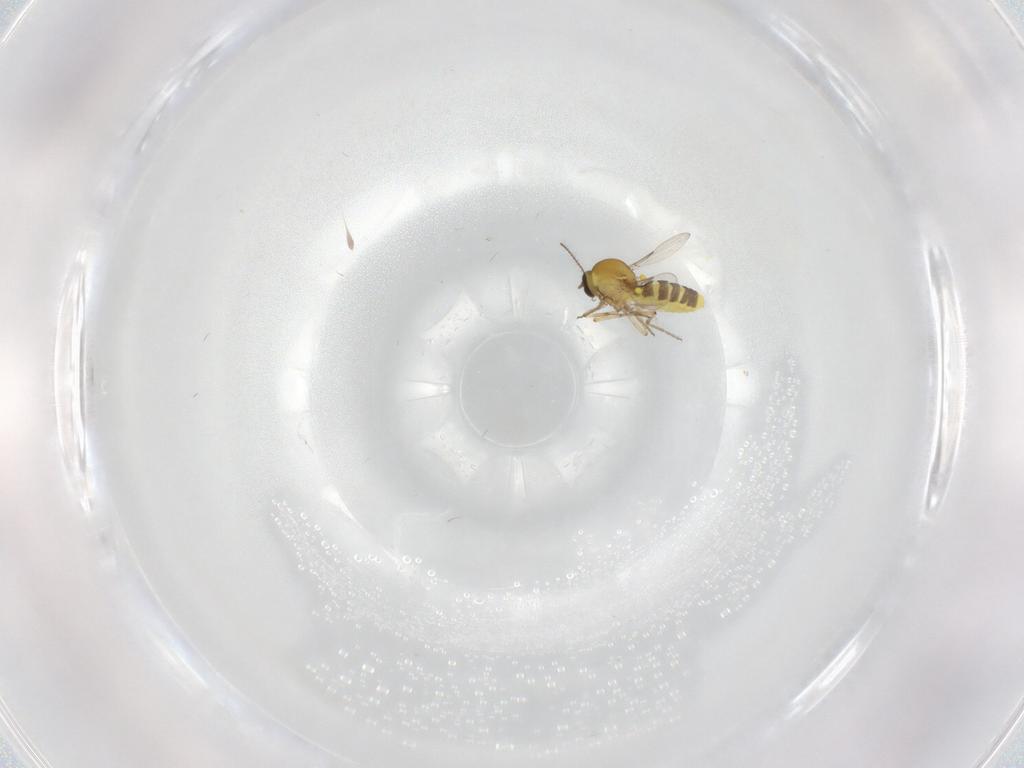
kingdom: Animalia
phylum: Arthropoda
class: Insecta
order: Diptera
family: Ceratopogonidae
